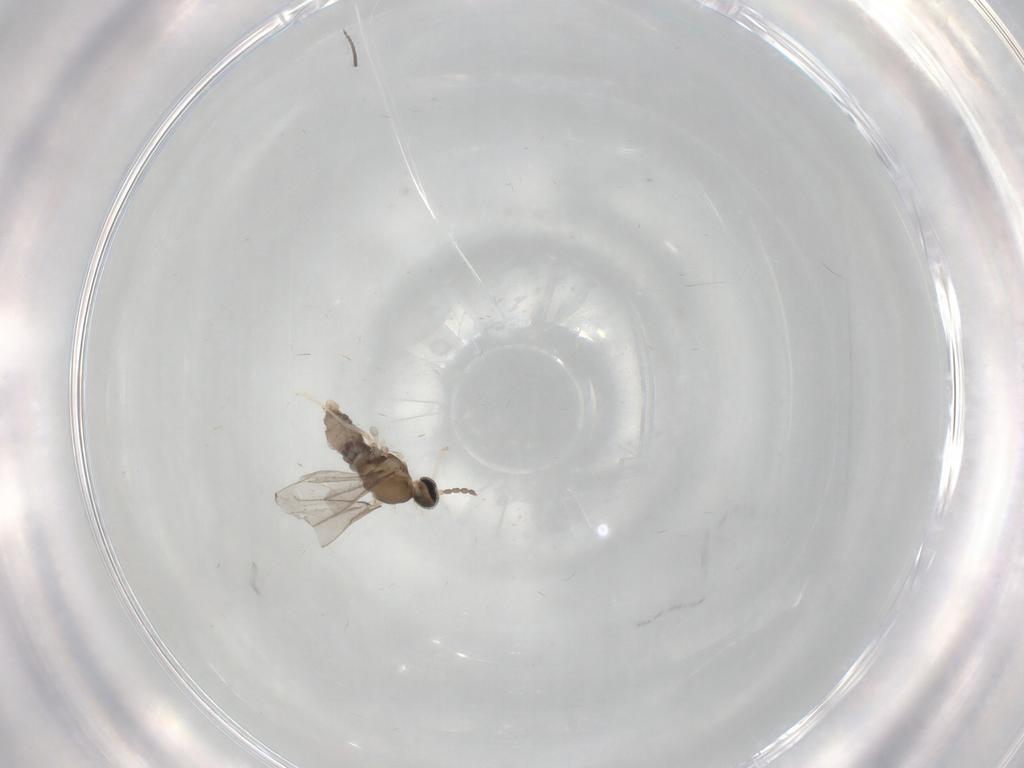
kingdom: Animalia
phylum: Arthropoda
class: Insecta
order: Diptera
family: Cecidomyiidae
